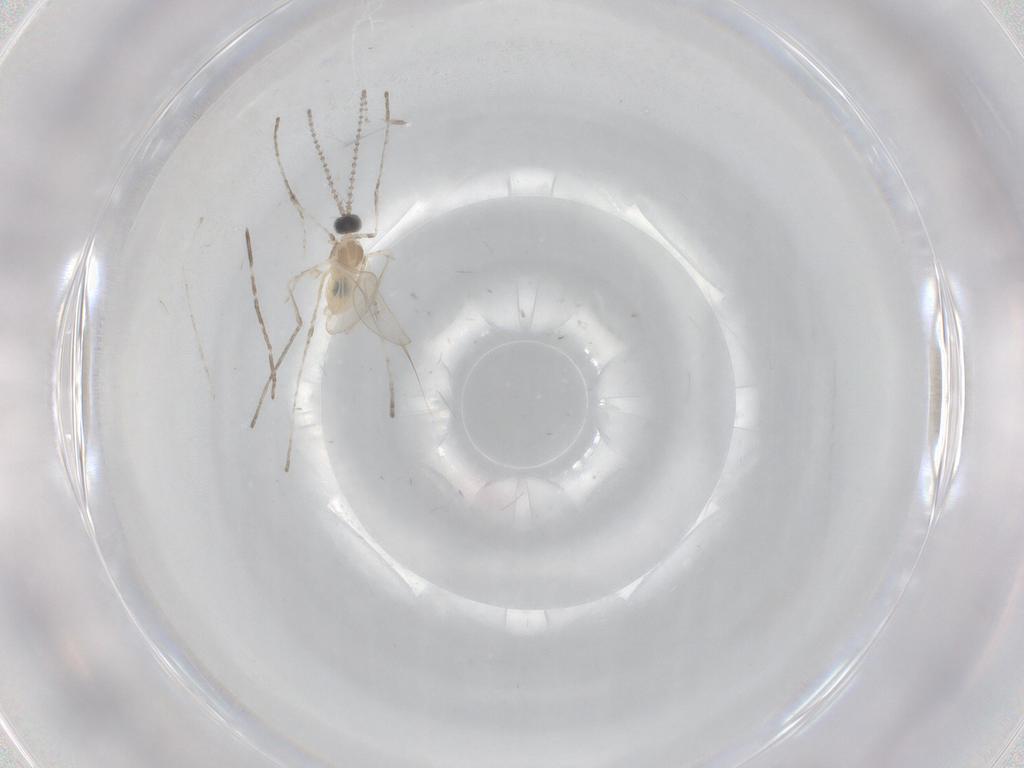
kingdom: Animalia
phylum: Arthropoda
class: Insecta
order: Diptera
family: Cecidomyiidae
